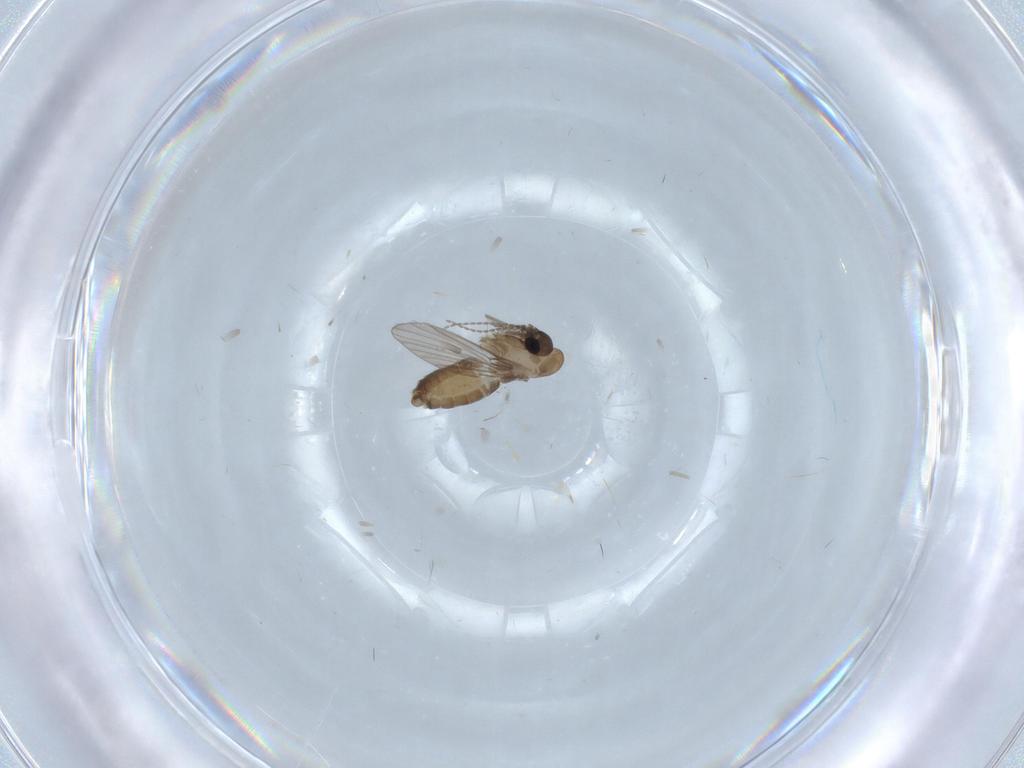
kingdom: Animalia
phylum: Arthropoda
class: Insecta
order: Diptera
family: Psychodidae
